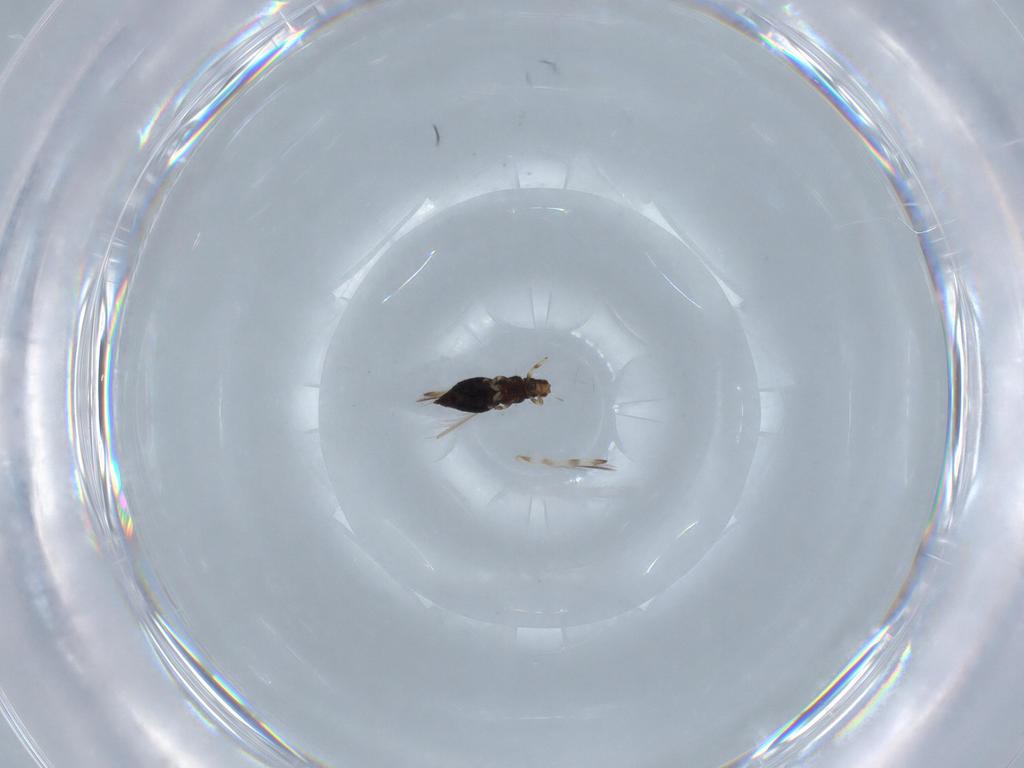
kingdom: Animalia
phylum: Arthropoda
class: Insecta
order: Thysanoptera
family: Thripidae
